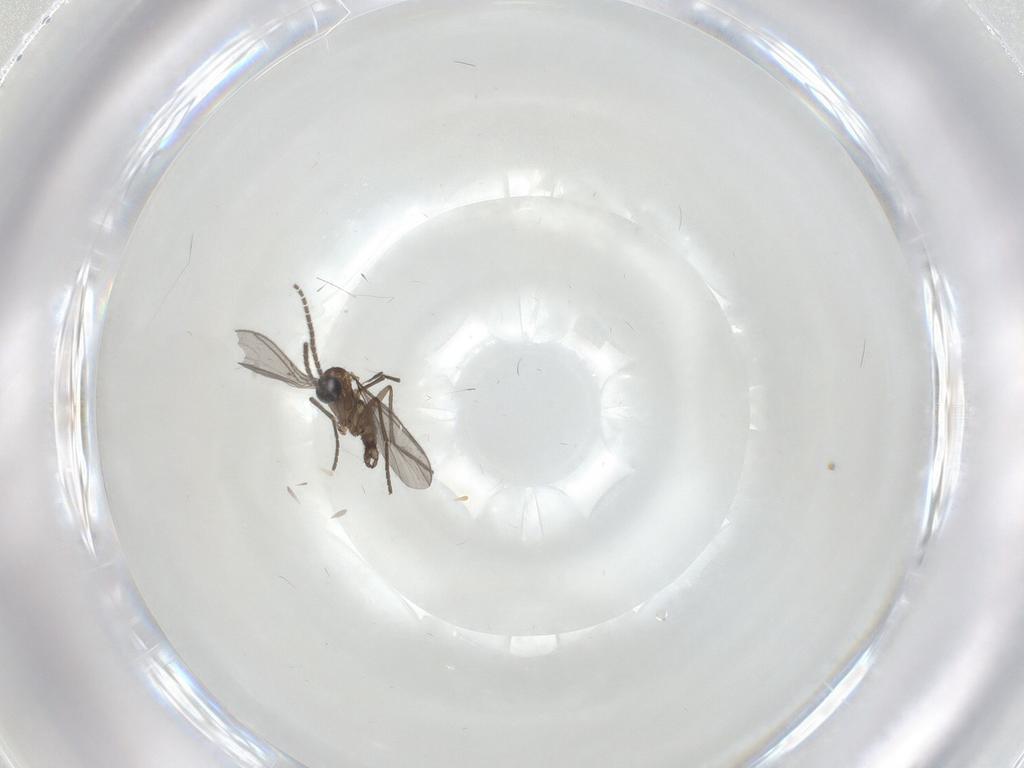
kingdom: Animalia
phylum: Arthropoda
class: Insecta
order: Diptera
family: Sciaridae
